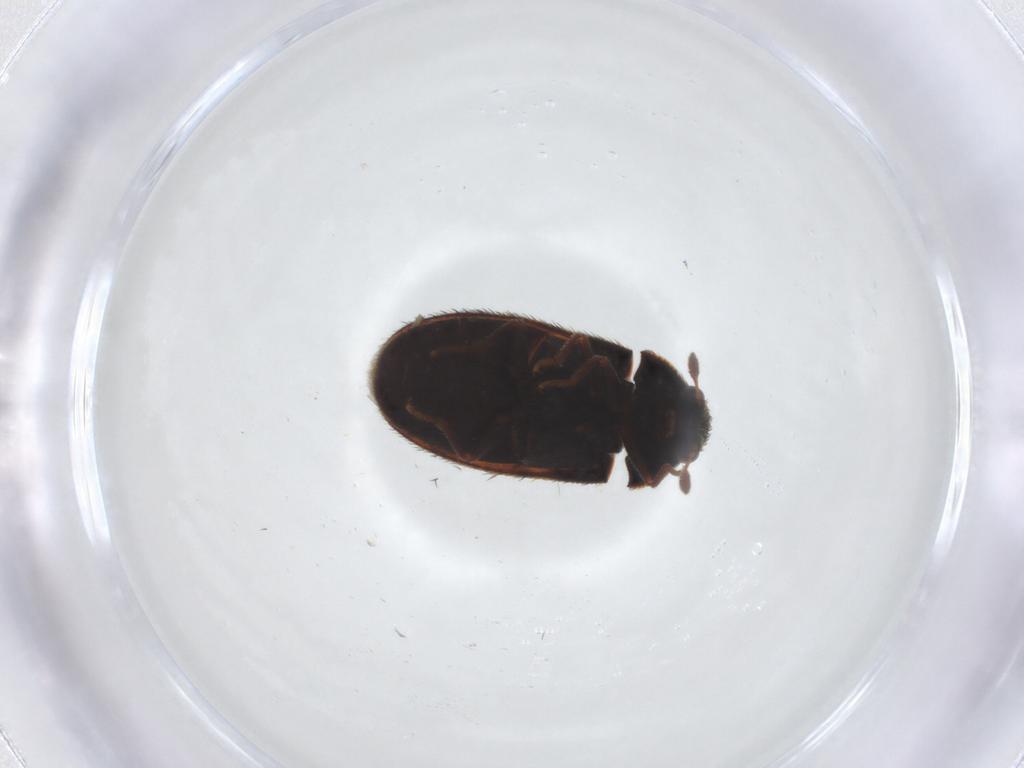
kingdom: Animalia
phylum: Arthropoda
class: Insecta
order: Coleoptera
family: Dermestidae
